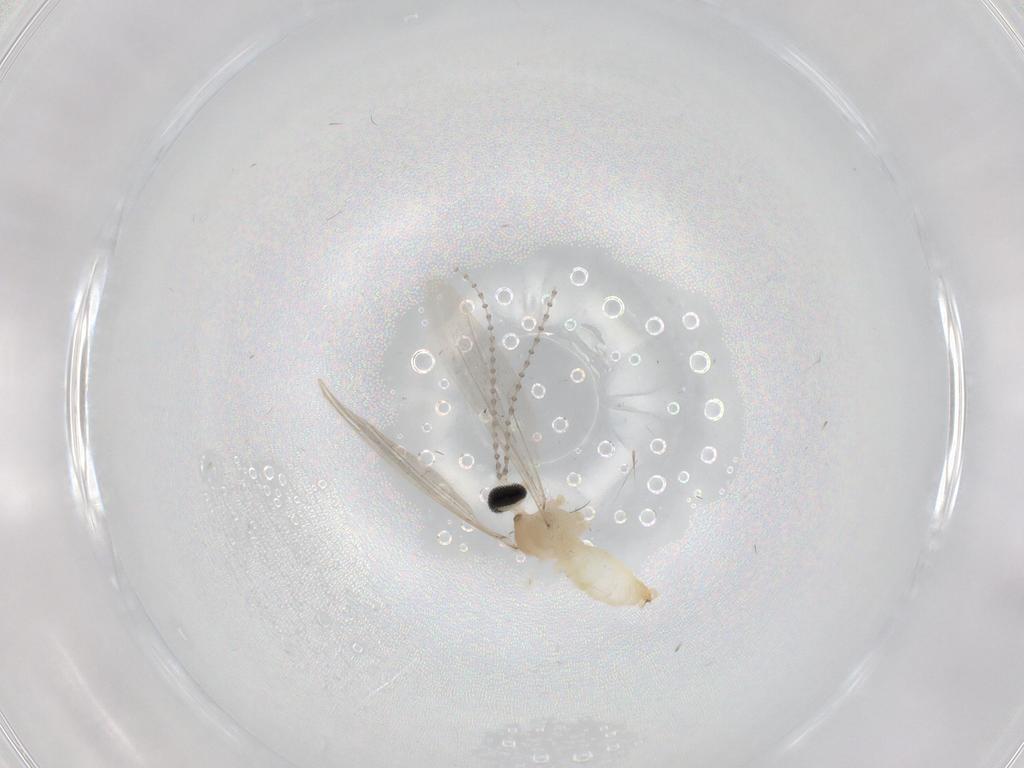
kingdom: Animalia
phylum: Arthropoda
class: Insecta
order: Diptera
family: Cecidomyiidae
